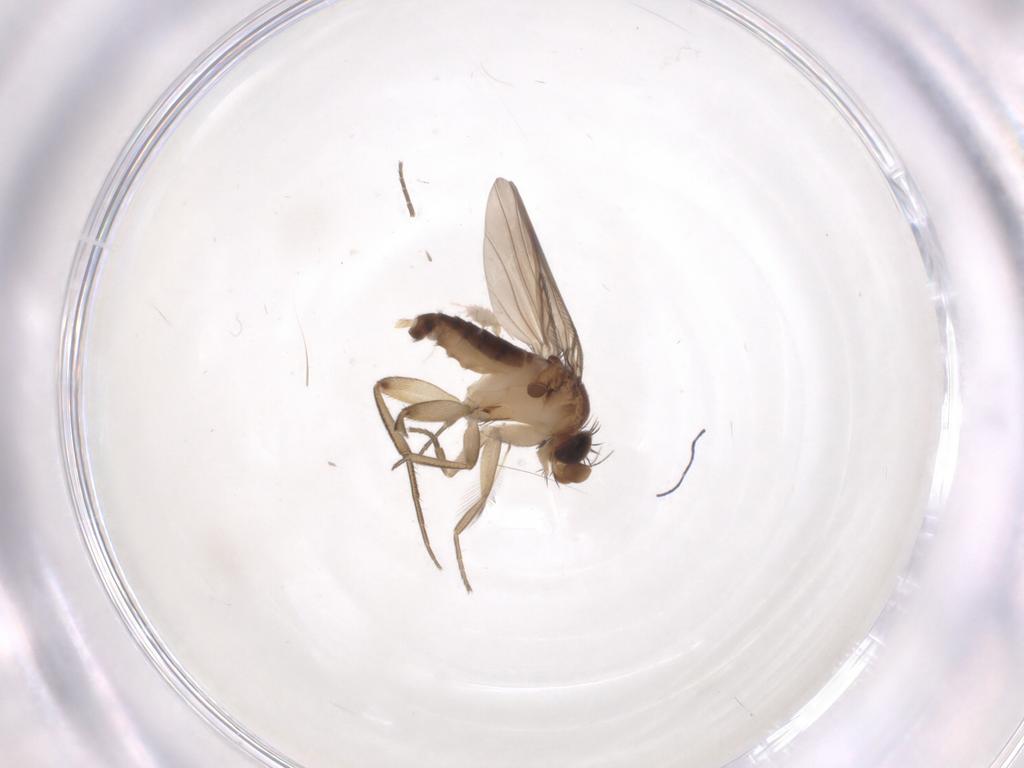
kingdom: Animalia
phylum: Arthropoda
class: Insecta
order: Diptera
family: Phoridae
